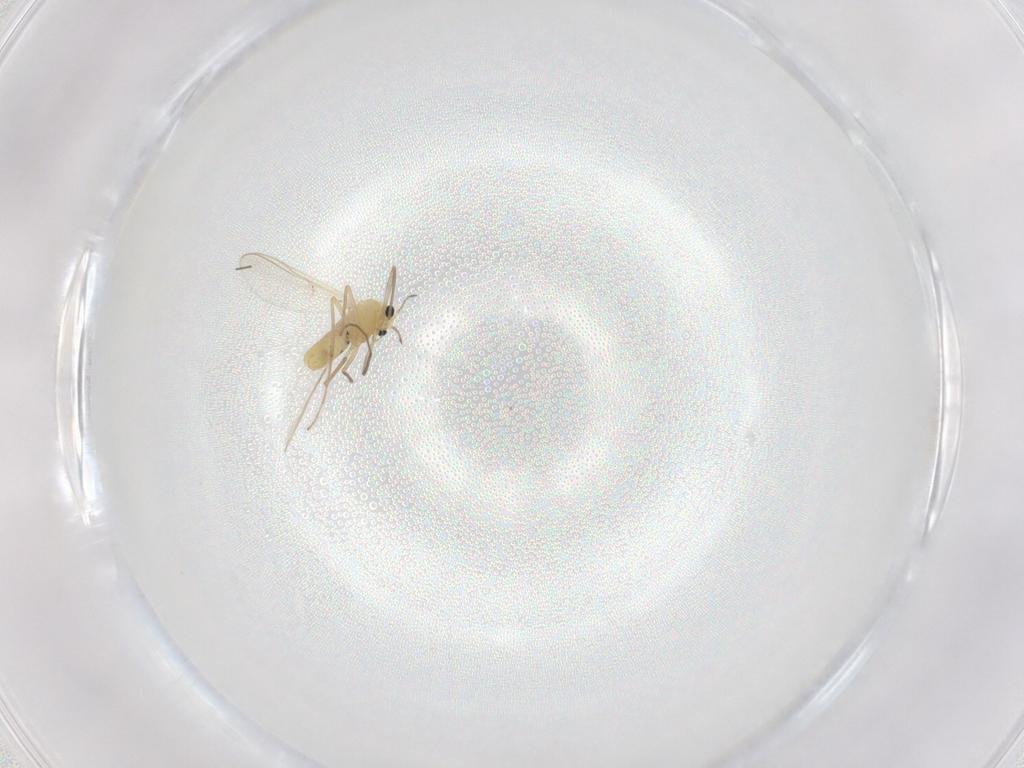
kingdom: Animalia
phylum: Arthropoda
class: Insecta
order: Diptera
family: Chironomidae
